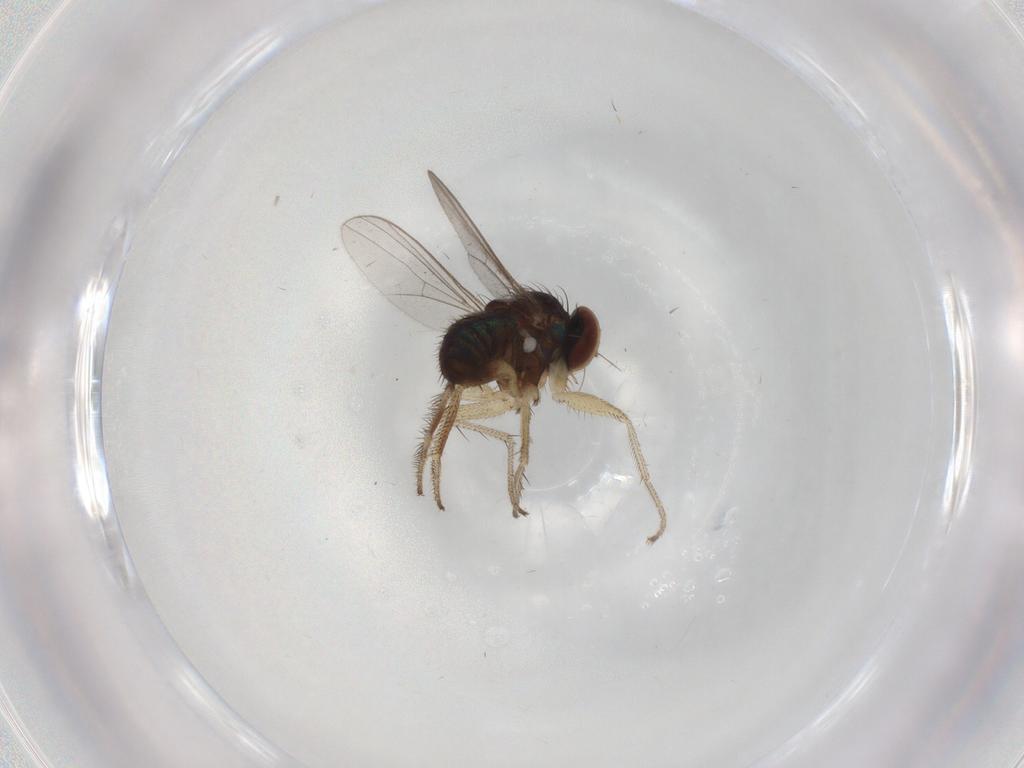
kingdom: Animalia
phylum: Arthropoda
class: Insecta
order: Diptera
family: Dolichopodidae
